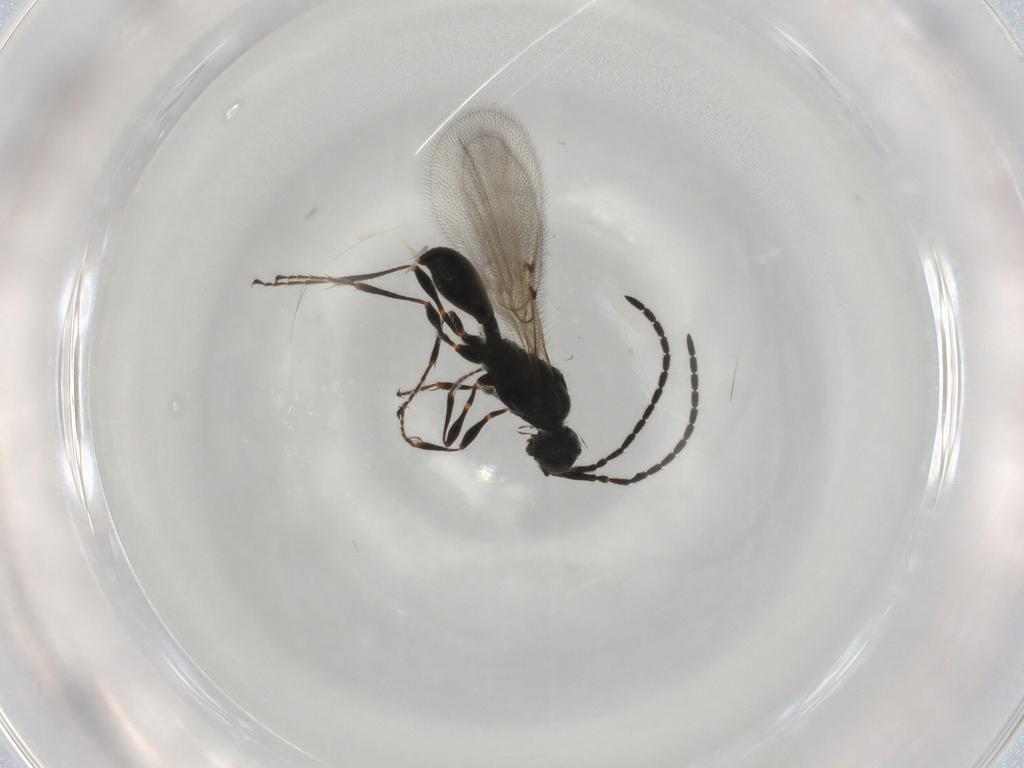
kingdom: Animalia
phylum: Arthropoda
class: Insecta
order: Hymenoptera
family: Diapriidae
